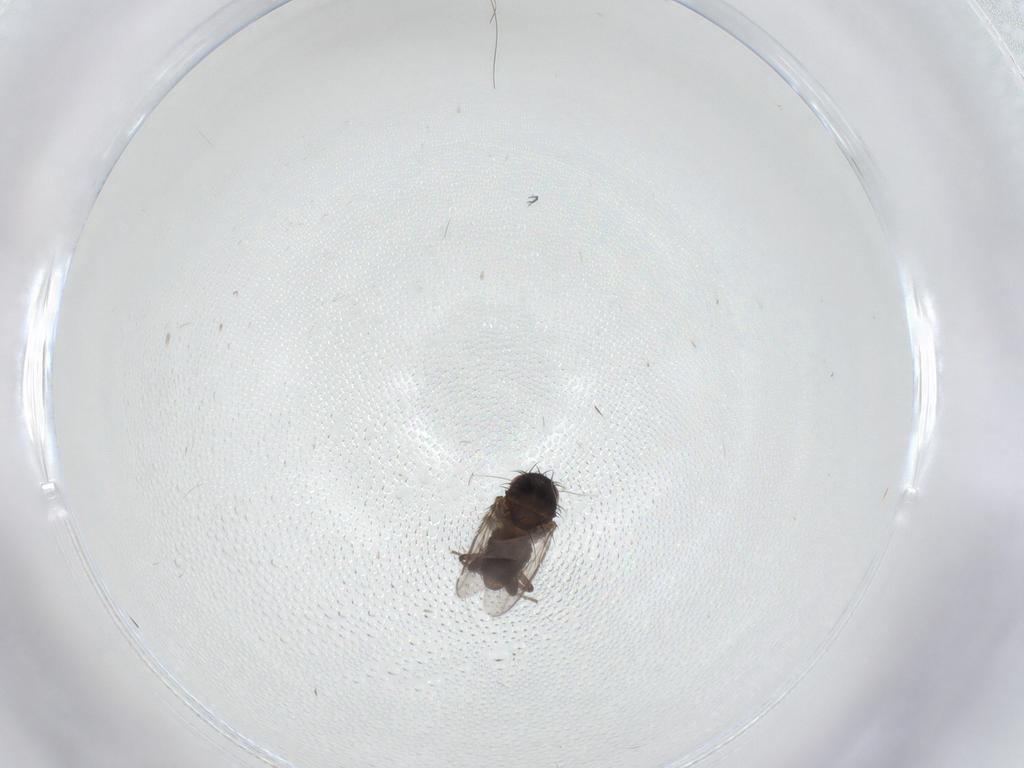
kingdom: Animalia
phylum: Arthropoda
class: Insecta
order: Diptera
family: Sphaeroceridae
